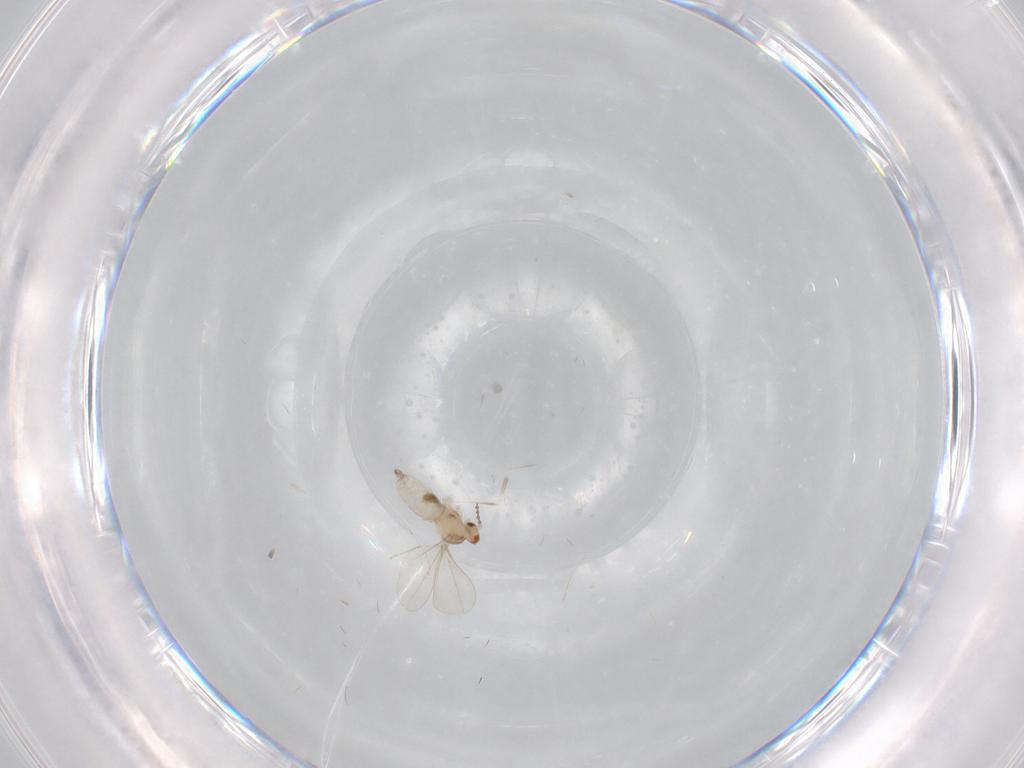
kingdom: Animalia
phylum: Arthropoda
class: Insecta
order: Diptera
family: Cecidomyiidae
